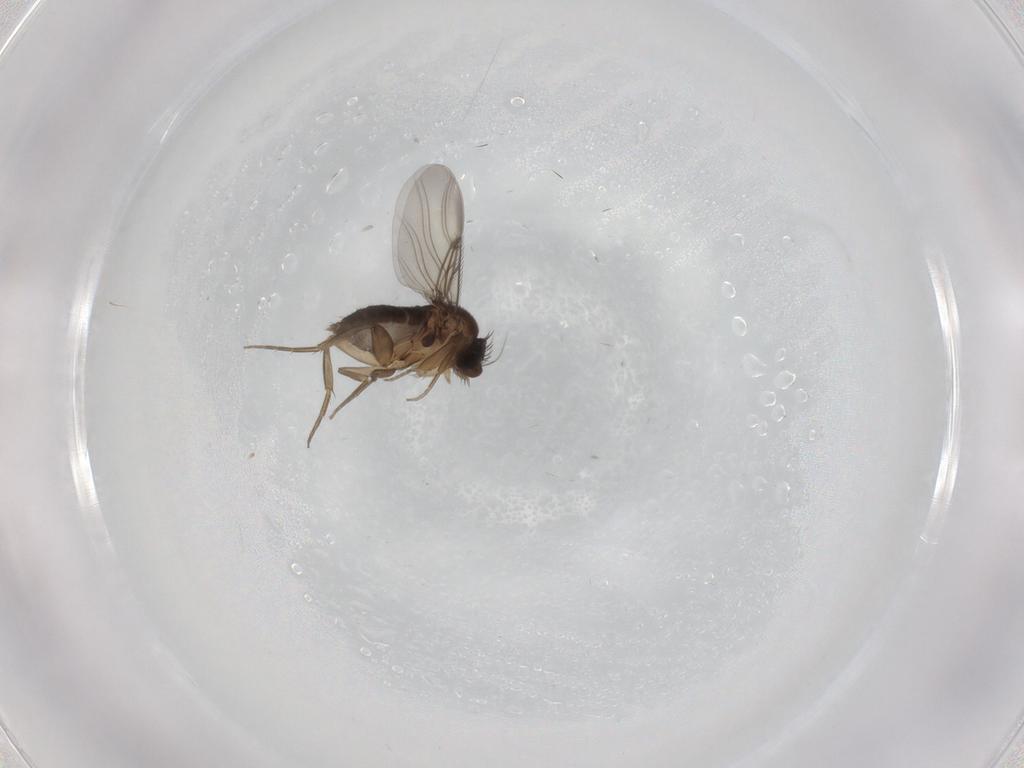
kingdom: Animalia
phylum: Arthropoda
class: Insecta
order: Diptera
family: Phoridae
